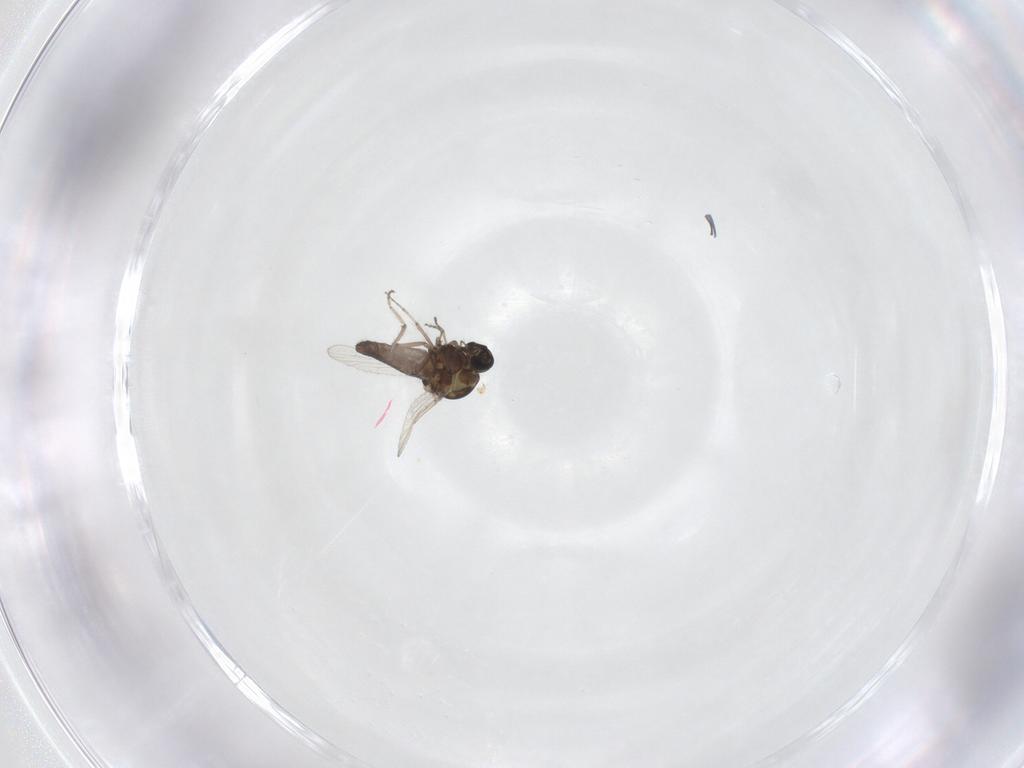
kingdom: Animalia
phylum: Arthropoda
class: Insecta
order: Diptera
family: Ceratopogonidae
